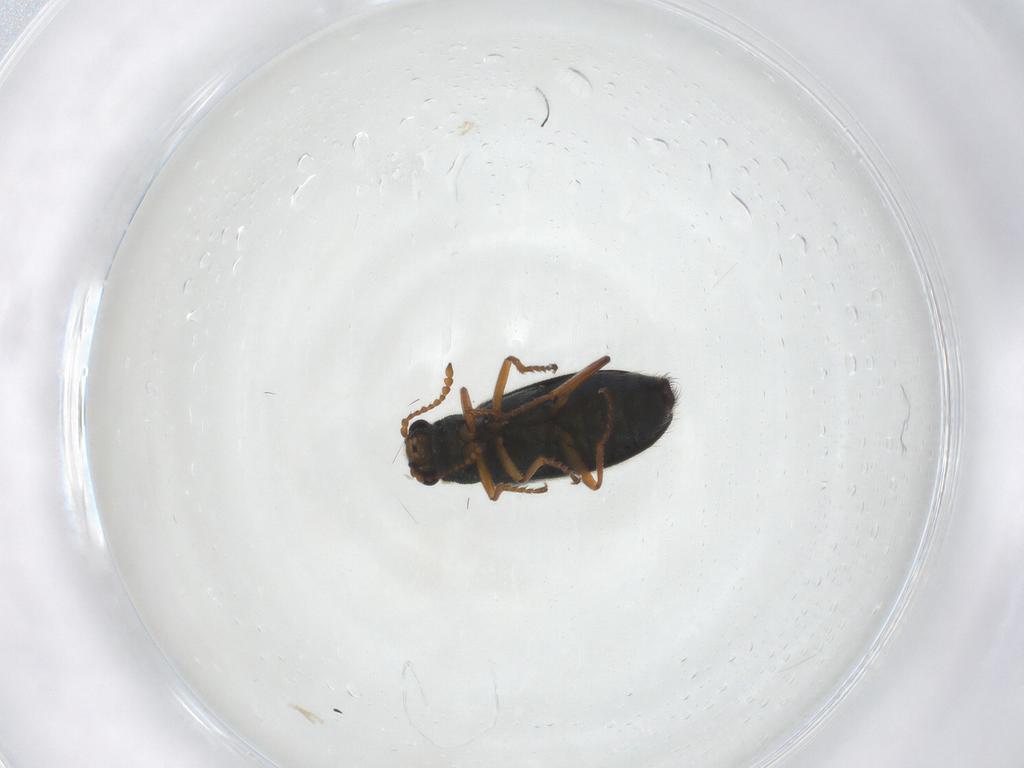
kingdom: Animalia
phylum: Arthropoda
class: Insecta
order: Coleoptera
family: Melyridae
